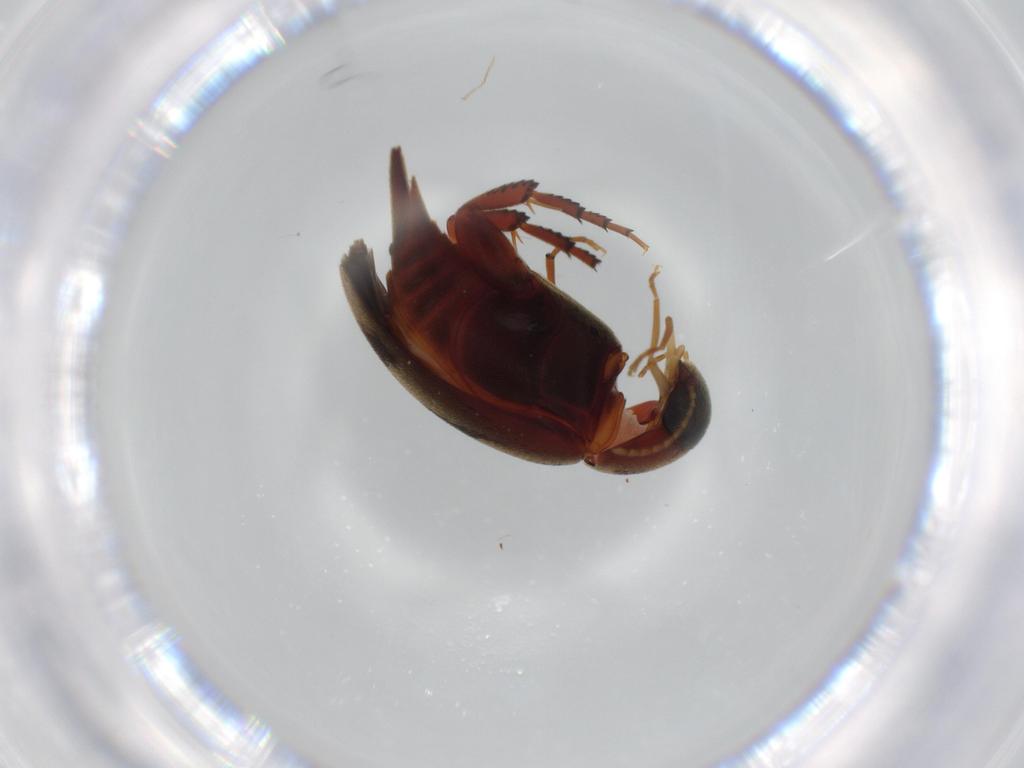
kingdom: Animalia
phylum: Arthropoda
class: Insecta
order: Coleoptera
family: Mordellidae
